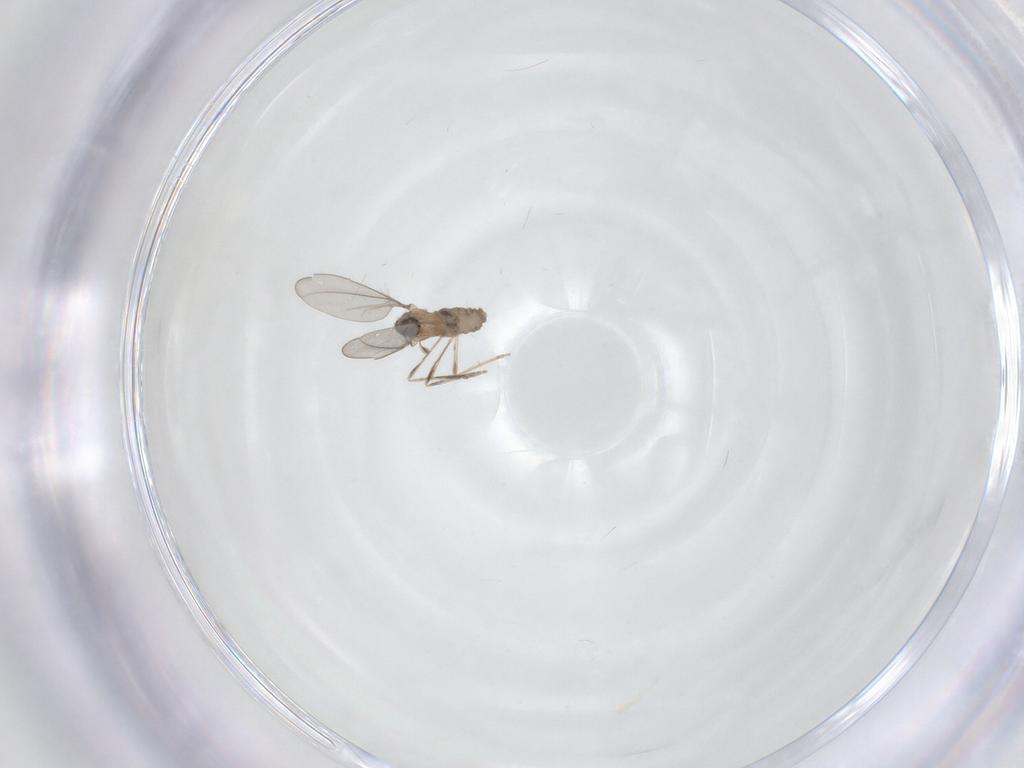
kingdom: Animalia
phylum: Arthropoda
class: Insecta
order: Diptera
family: Cecidomyiidae
